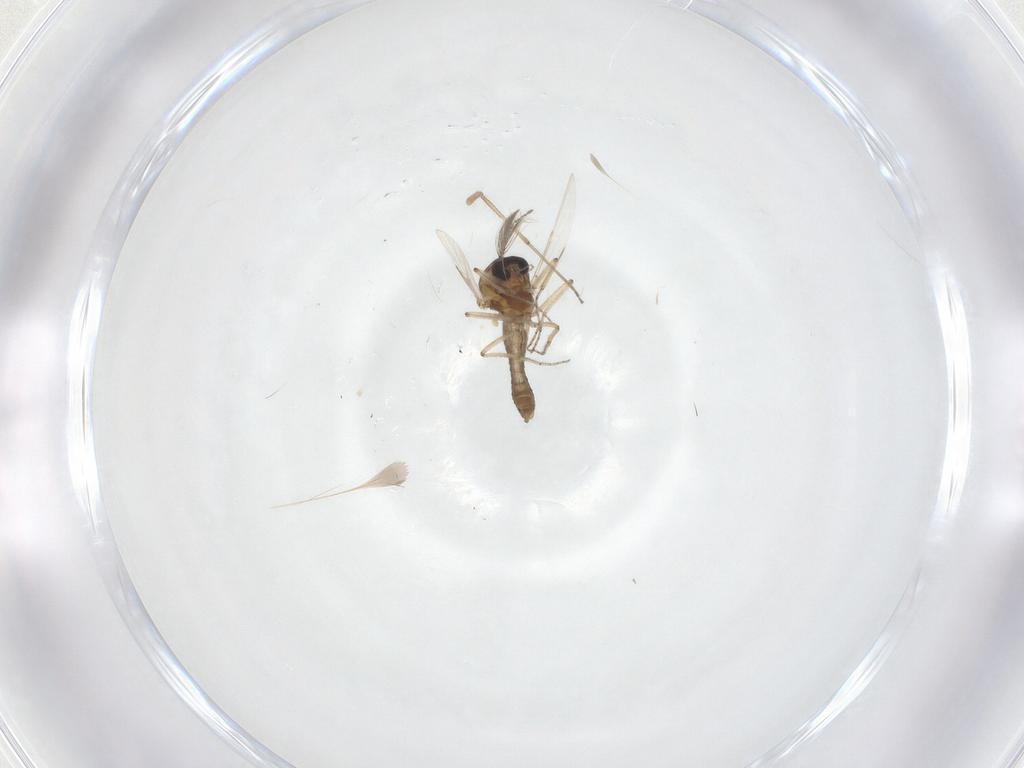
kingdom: Animalia
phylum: Arthropoda
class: Insecta
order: Diptera
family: Ceratopogonidae
